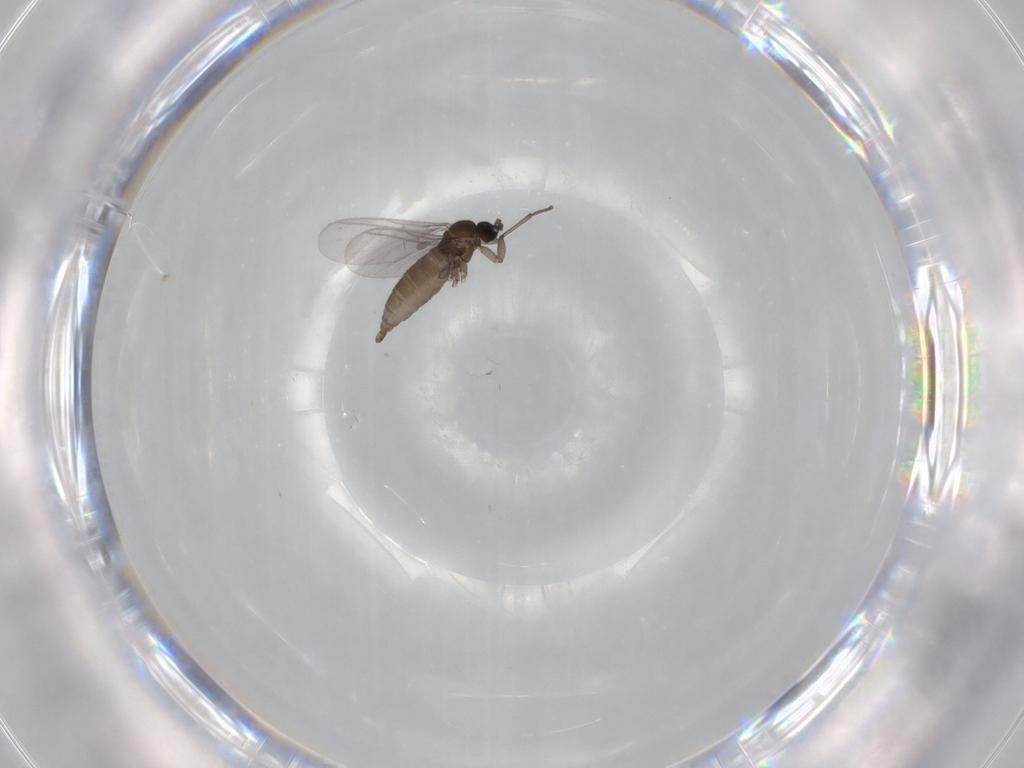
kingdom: Animalia
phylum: Arthropoda
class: Insecta
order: Diptera
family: Sciaridae
